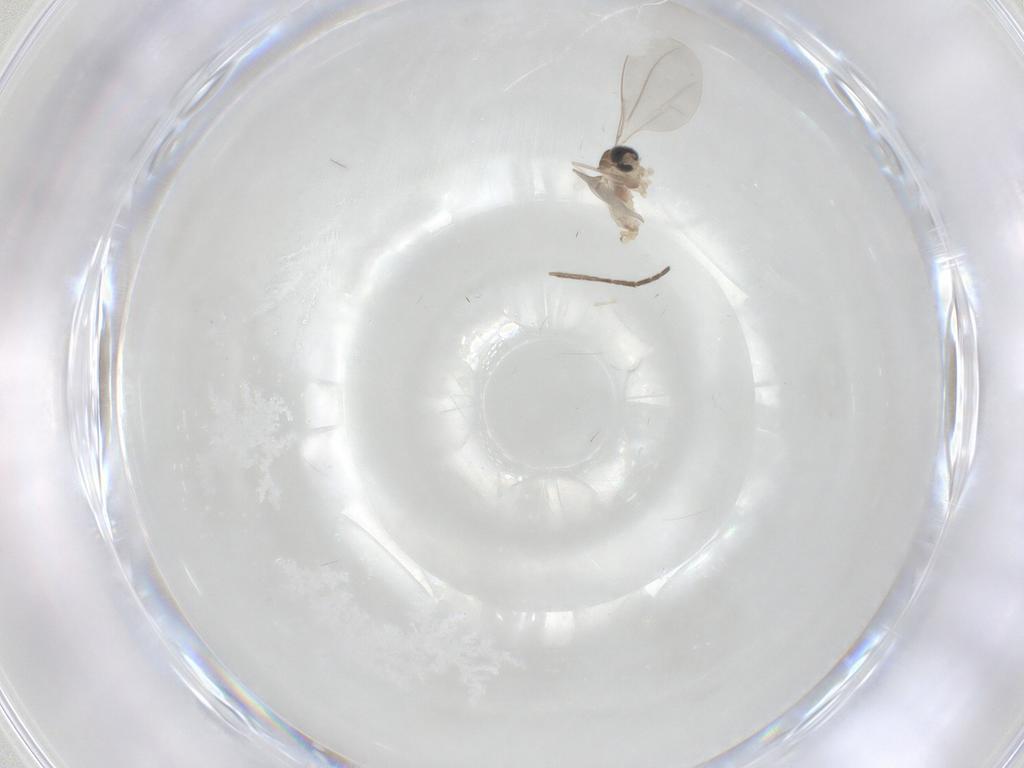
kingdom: Animalia
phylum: Arthropoda
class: Insecta
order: Diptera
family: Cecidomyiidae
